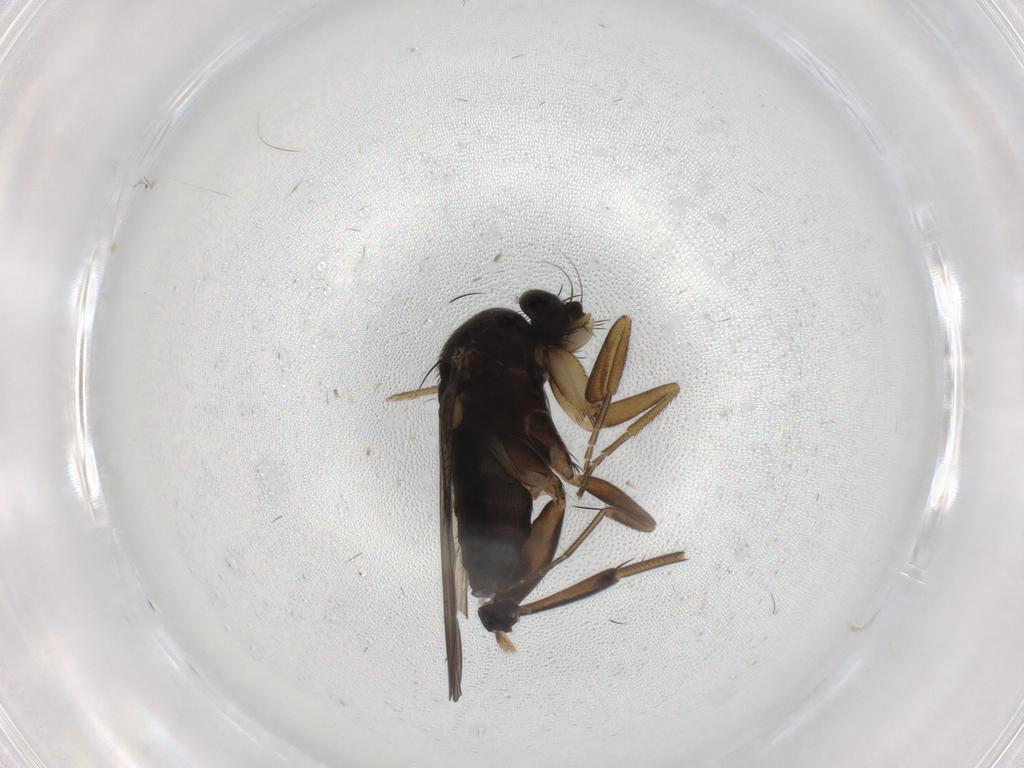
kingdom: Animalia
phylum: Arthropoda
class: Insecta
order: Diptera
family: Phoridae
